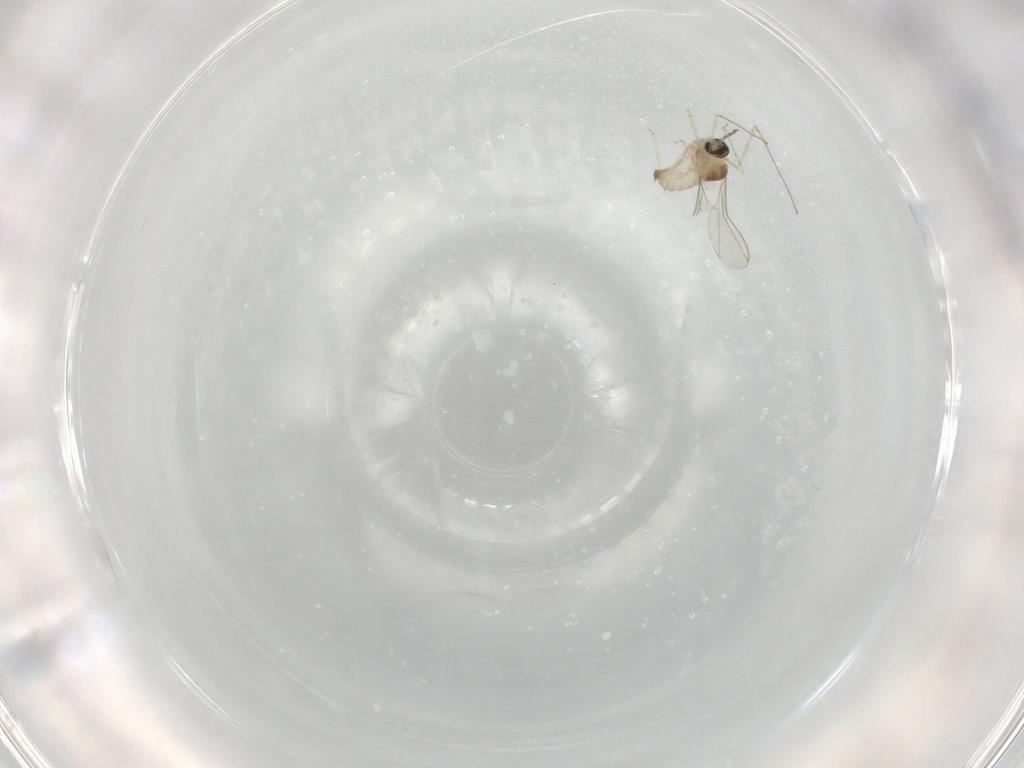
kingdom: Animalia
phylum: Arthropoda
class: Insecta
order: Diptera
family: Cecidomyiidae
